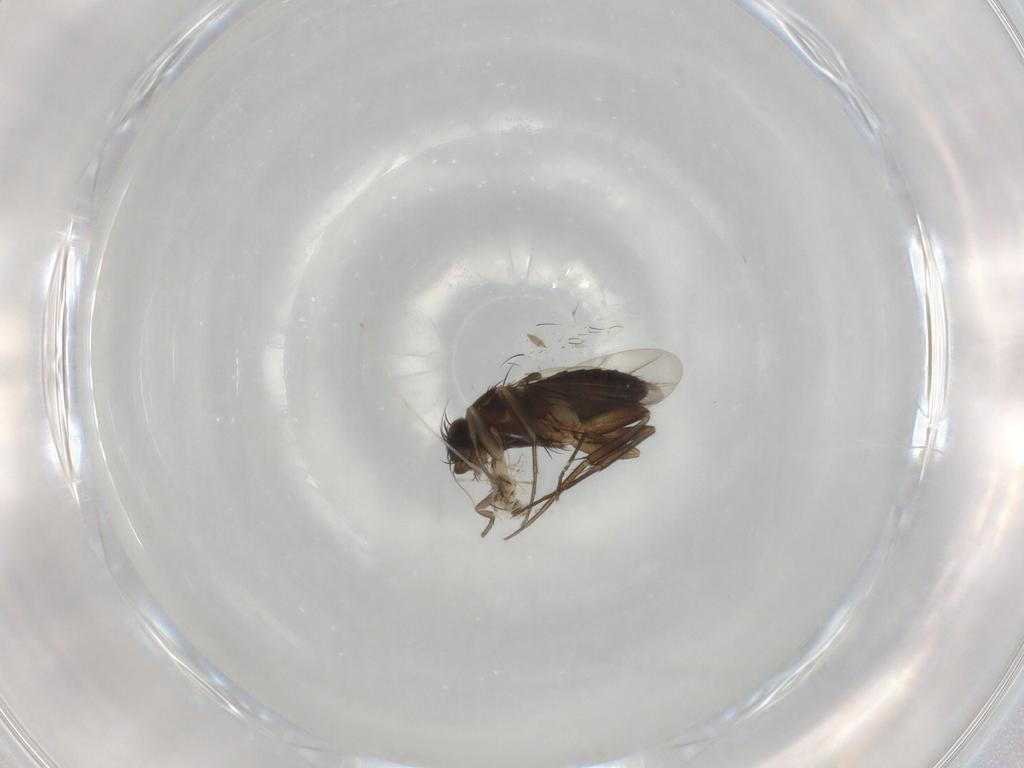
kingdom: Animalia
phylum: Arthropoda
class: Insecta
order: Diptera
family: Phoridae
